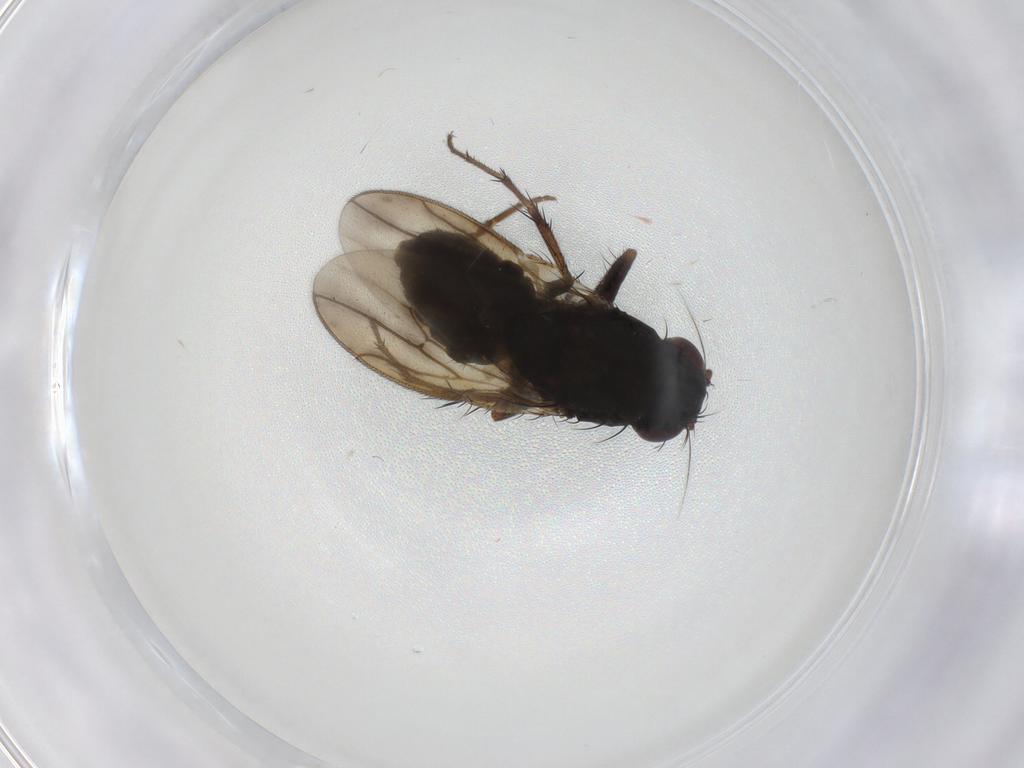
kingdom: Animalia
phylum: Arthropoda
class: Insecta
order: Diptera
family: Sphaeroceridae
